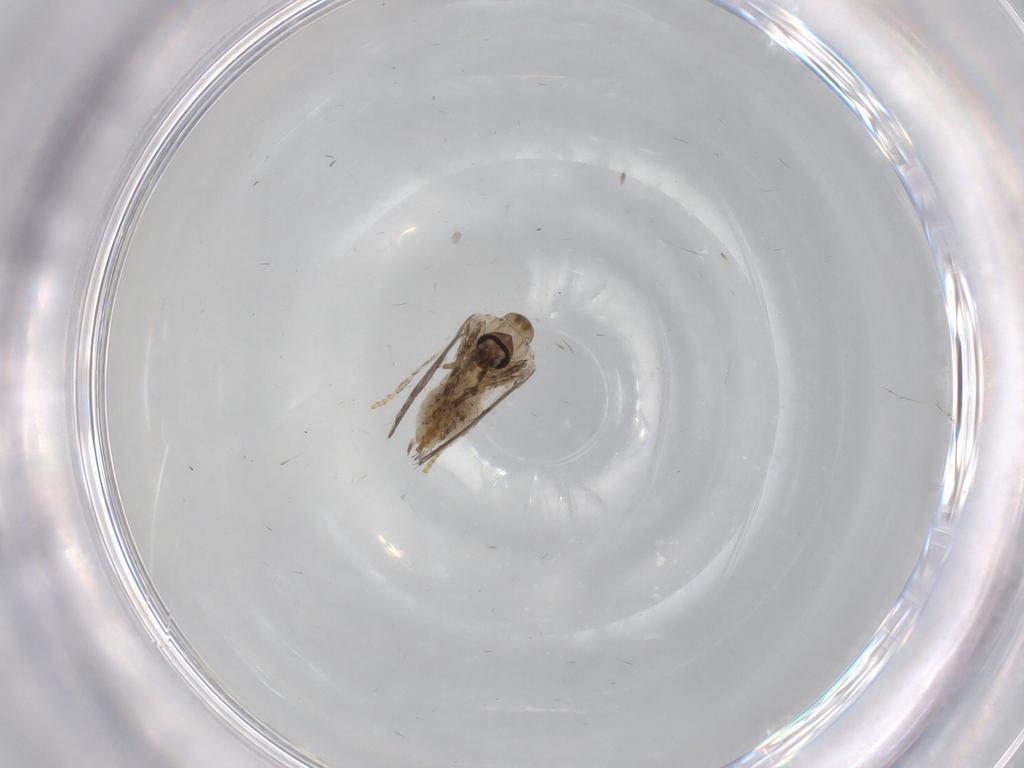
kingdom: Animalia
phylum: Arthropoda
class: Insecta
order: Diptera
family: Psychodidae
